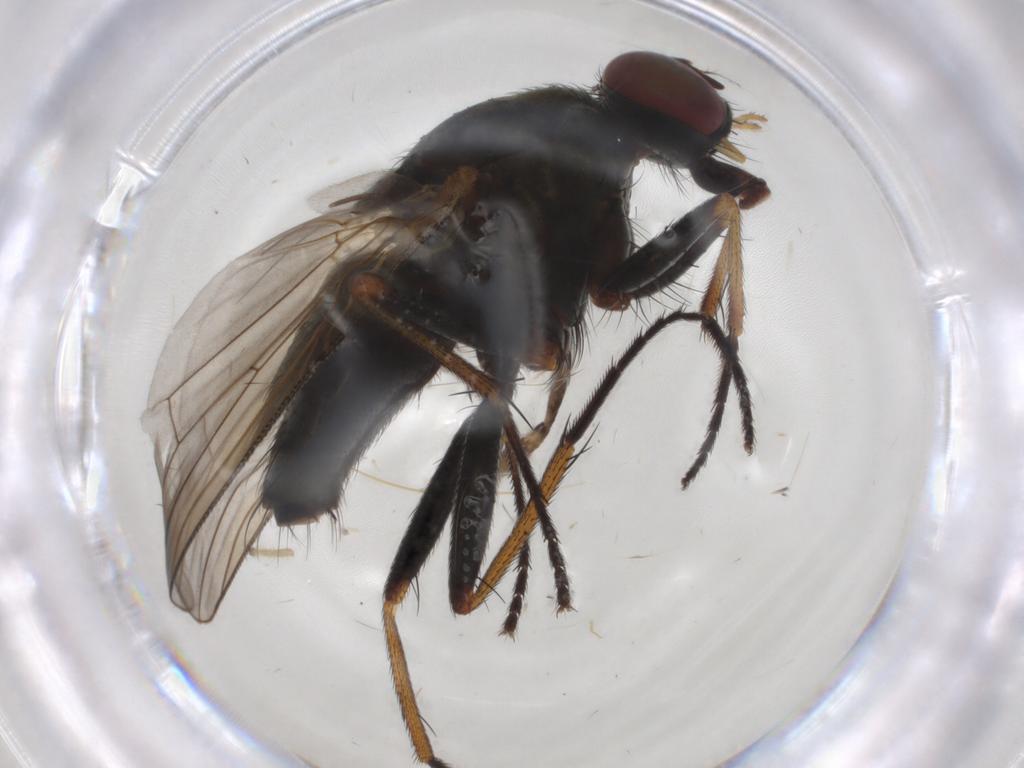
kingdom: Animalia
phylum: Arthropoda
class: Insecta
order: Diptera
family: Muscidae
